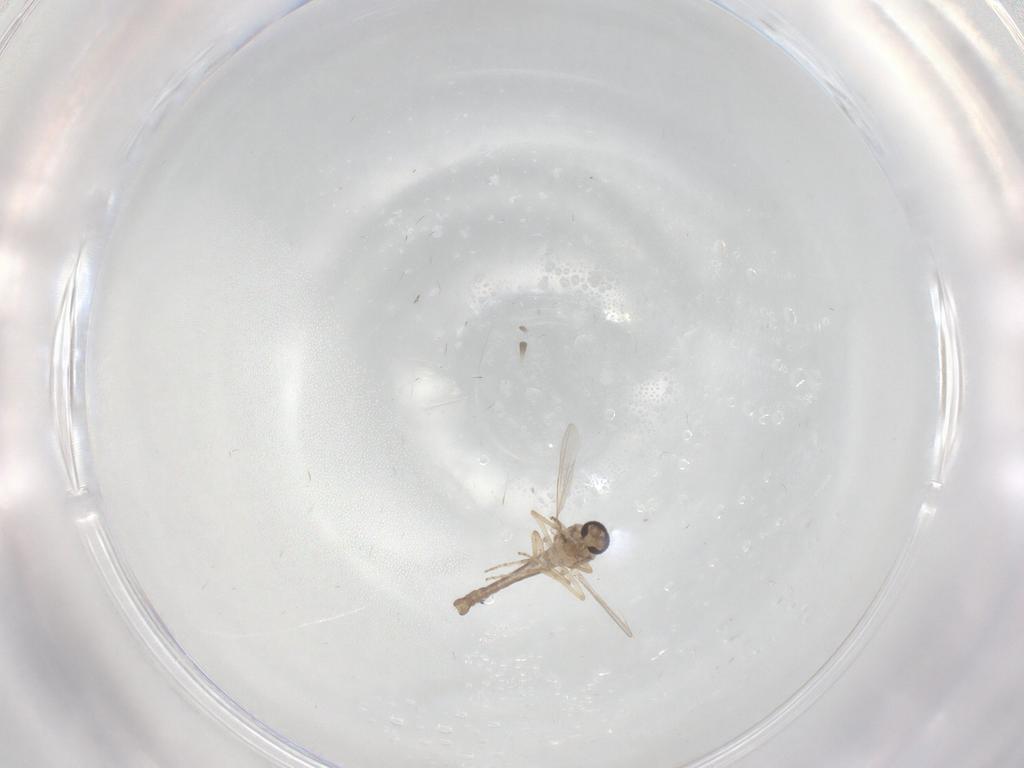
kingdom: Animalia
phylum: Arthropoda
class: Insecta
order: Diptera
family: Ceratopogonidae
